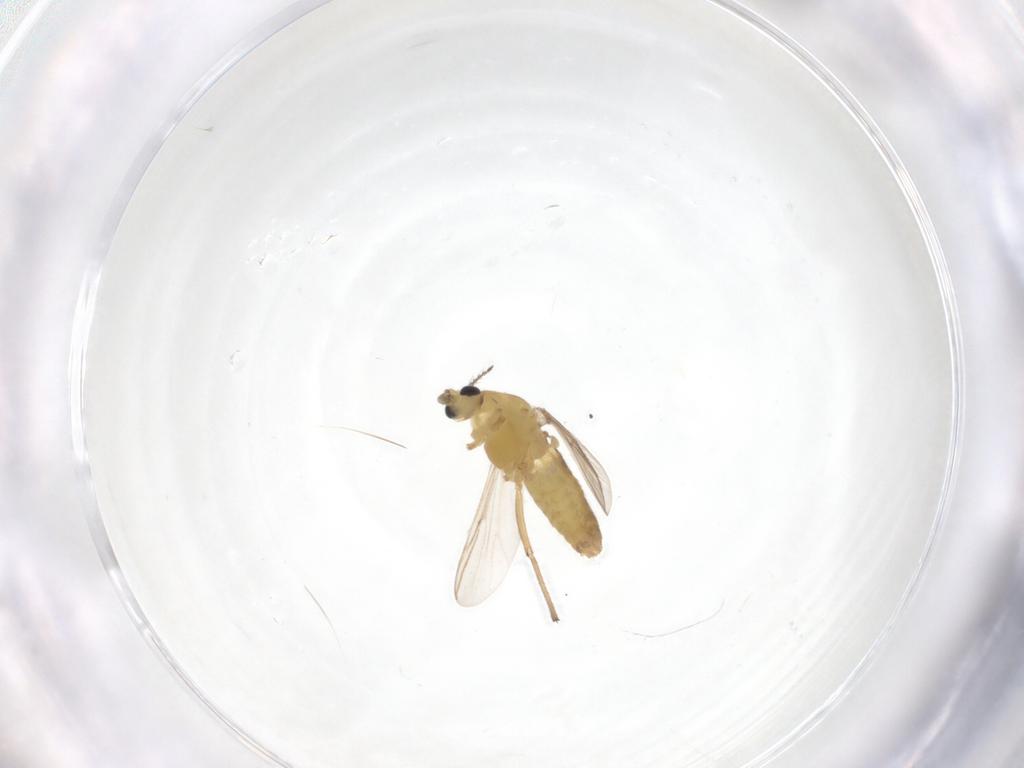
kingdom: Animalia
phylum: Arthropoda
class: Insecta
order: Diptera
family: Chironomidae
